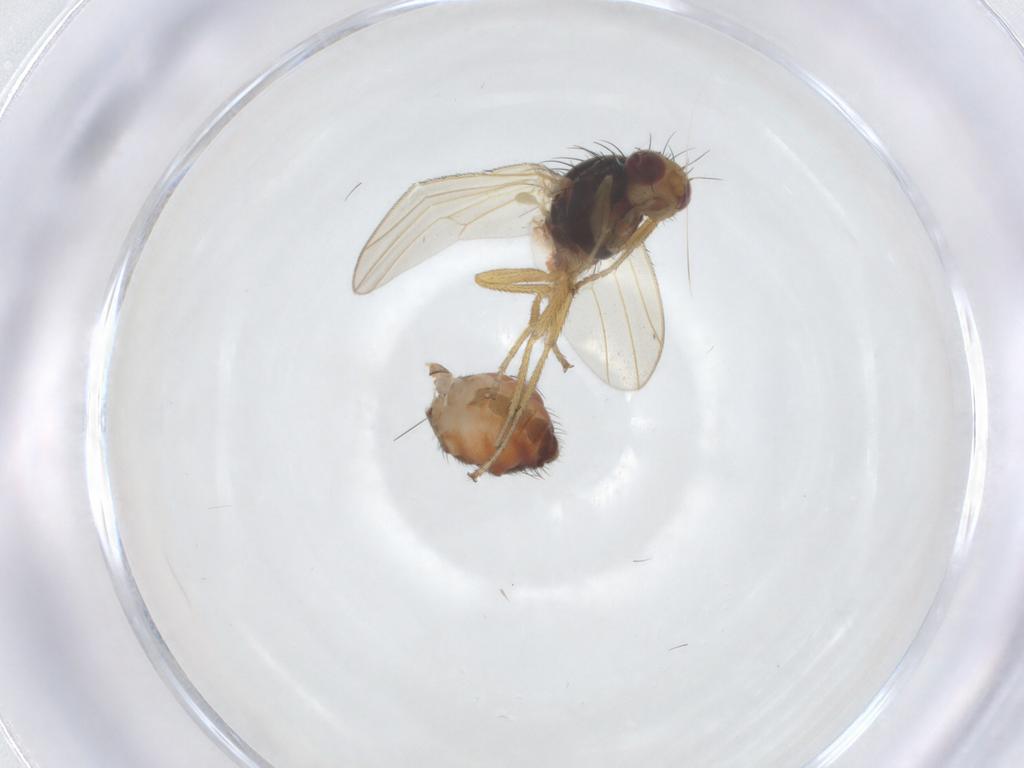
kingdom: Animalia
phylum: Arthropoda
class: Insecta
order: Diptera
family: Heleomyzidae
